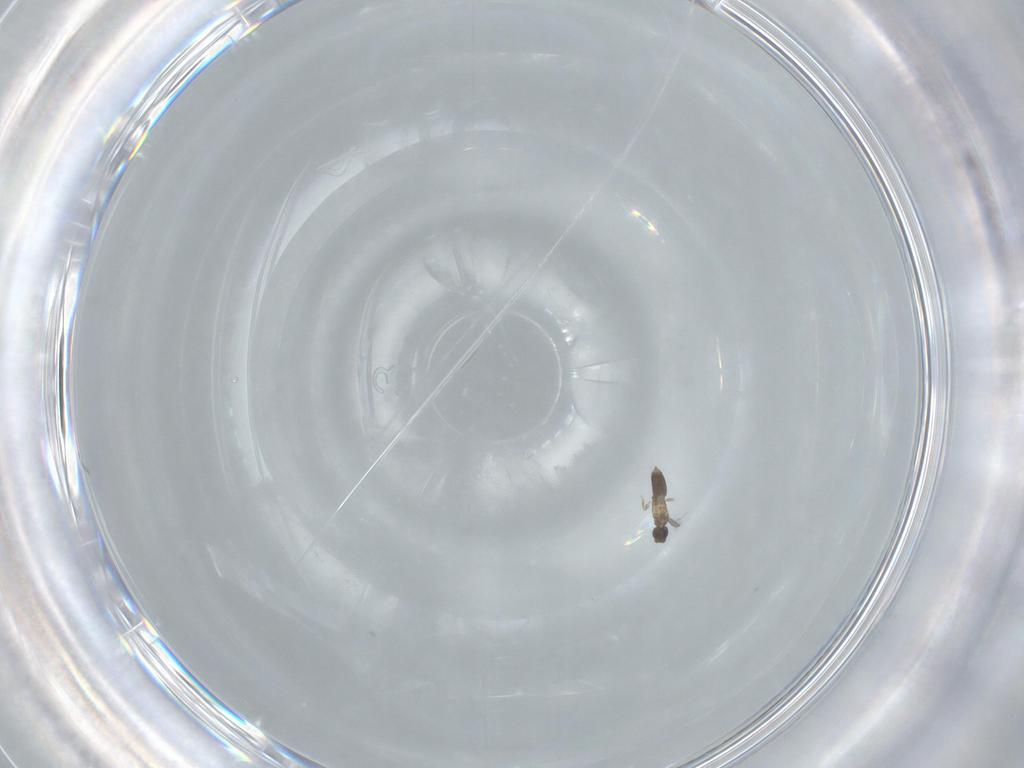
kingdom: Animalia
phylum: Arthropoda
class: Insecta
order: Hymenoptera
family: Mymaridae
